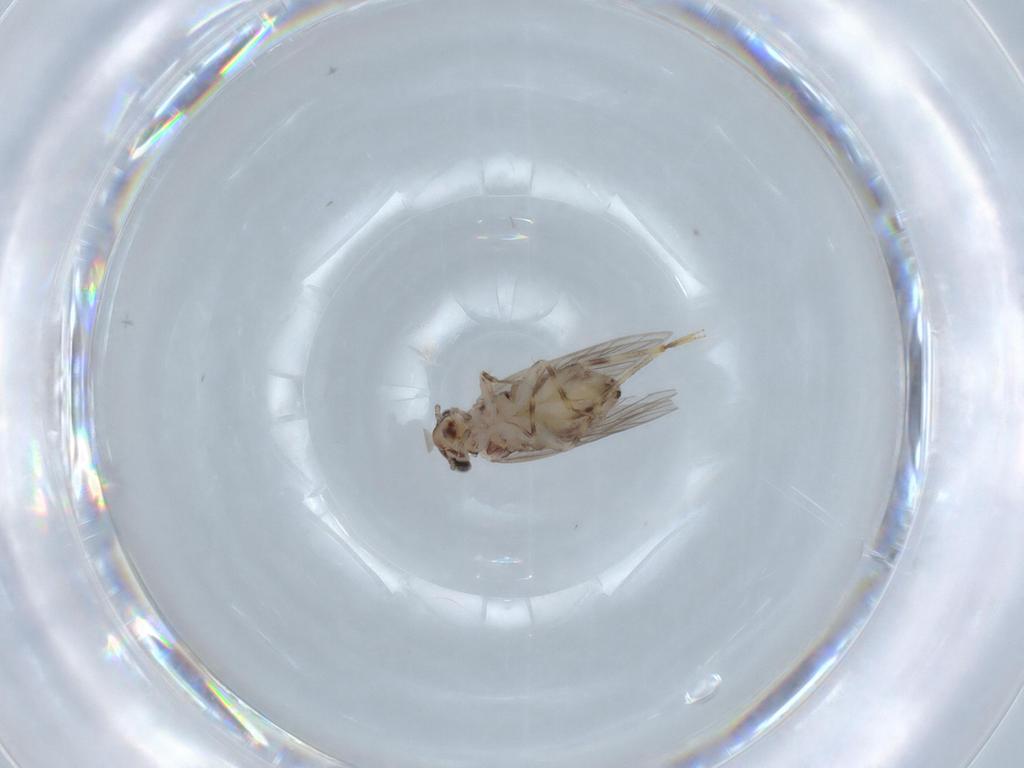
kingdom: Animalia
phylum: Arthropoda
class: Insecta
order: Psocodea
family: Lepidopsocidae
